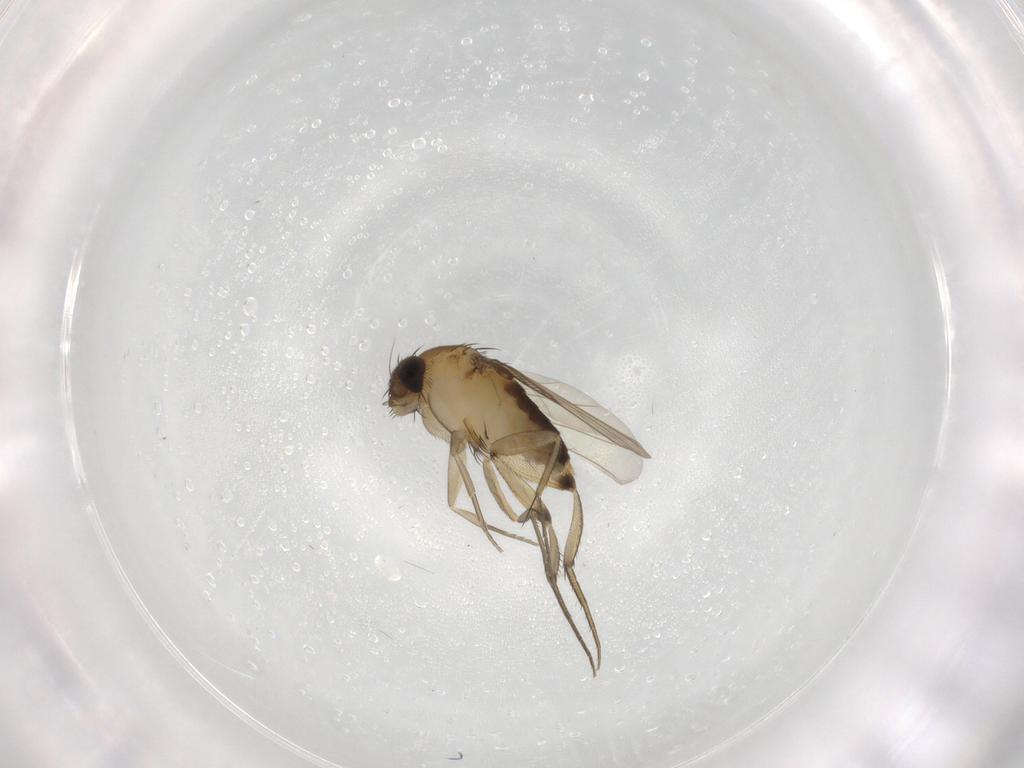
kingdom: Animalia
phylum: Arthropoda
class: Insecta
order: Diptera
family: Phoridae
